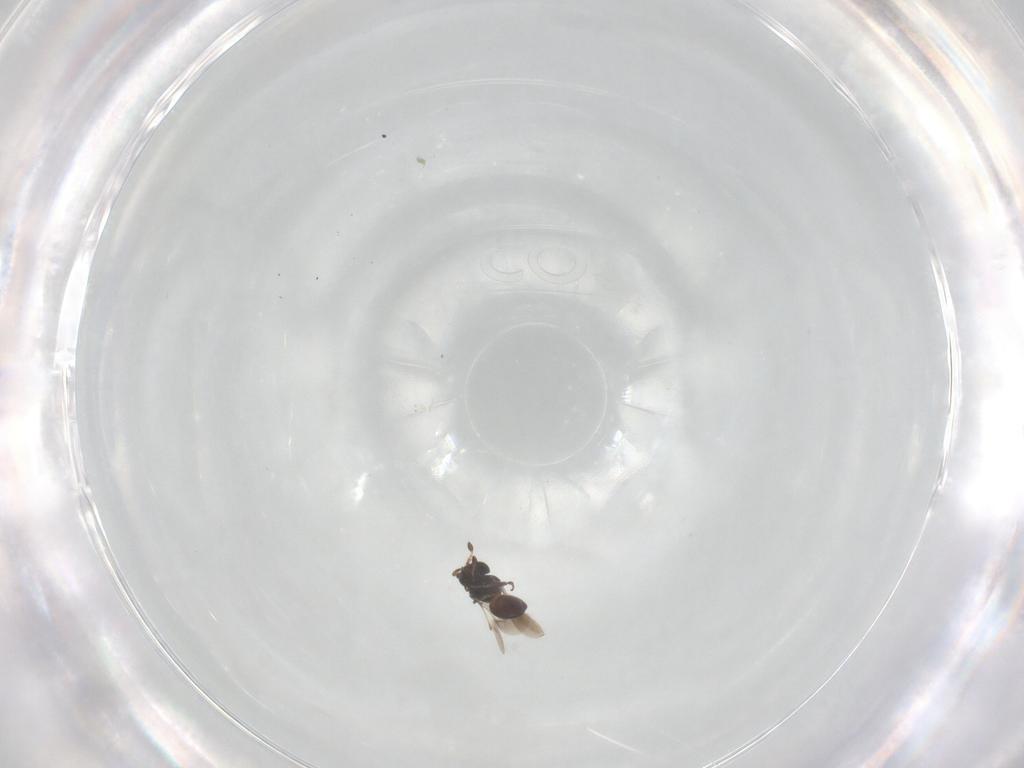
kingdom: Animalia
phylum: Arthropoda
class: Insecta
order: Hymenoptera
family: Scelionidae
